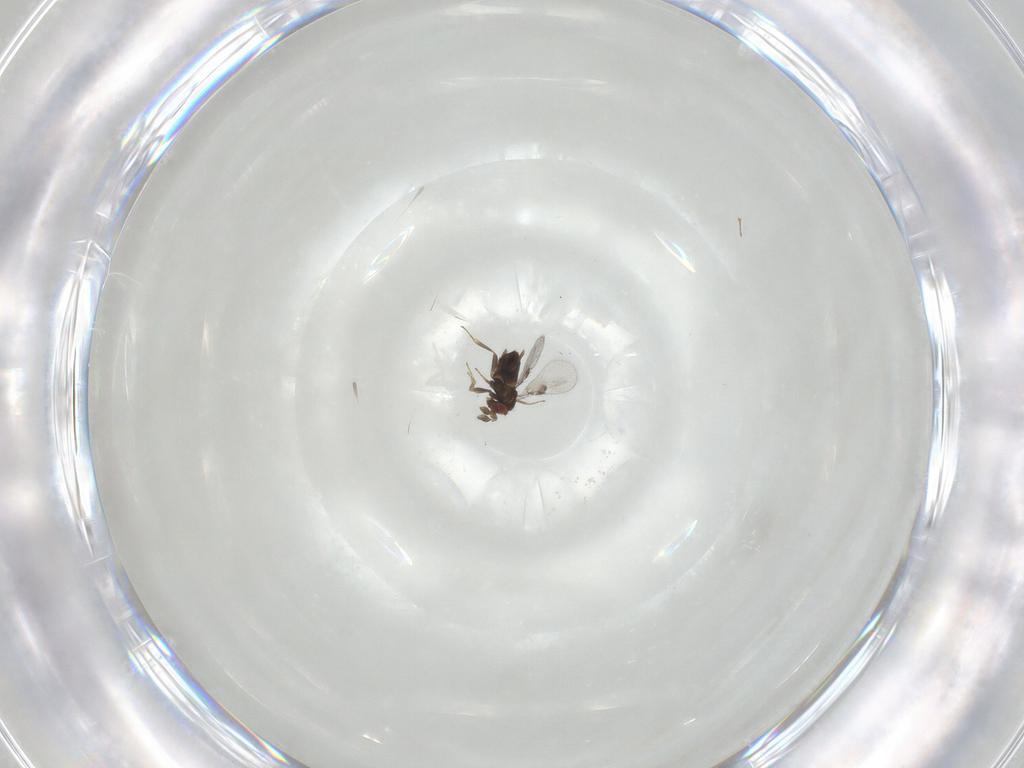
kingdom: Animalia
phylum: Arthropoda
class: Insecta
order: Hymenoptera
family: Trichogrammatidae
